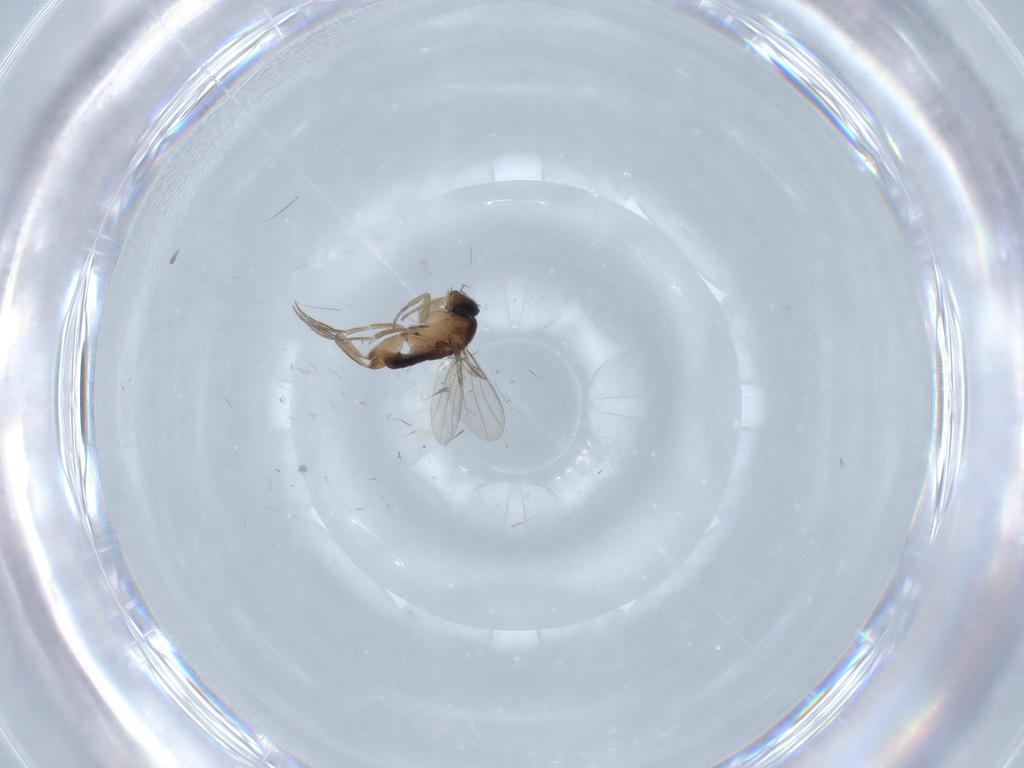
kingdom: Animalia
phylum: Arthropoda
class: Insecta
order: Diptera
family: Phoridae
